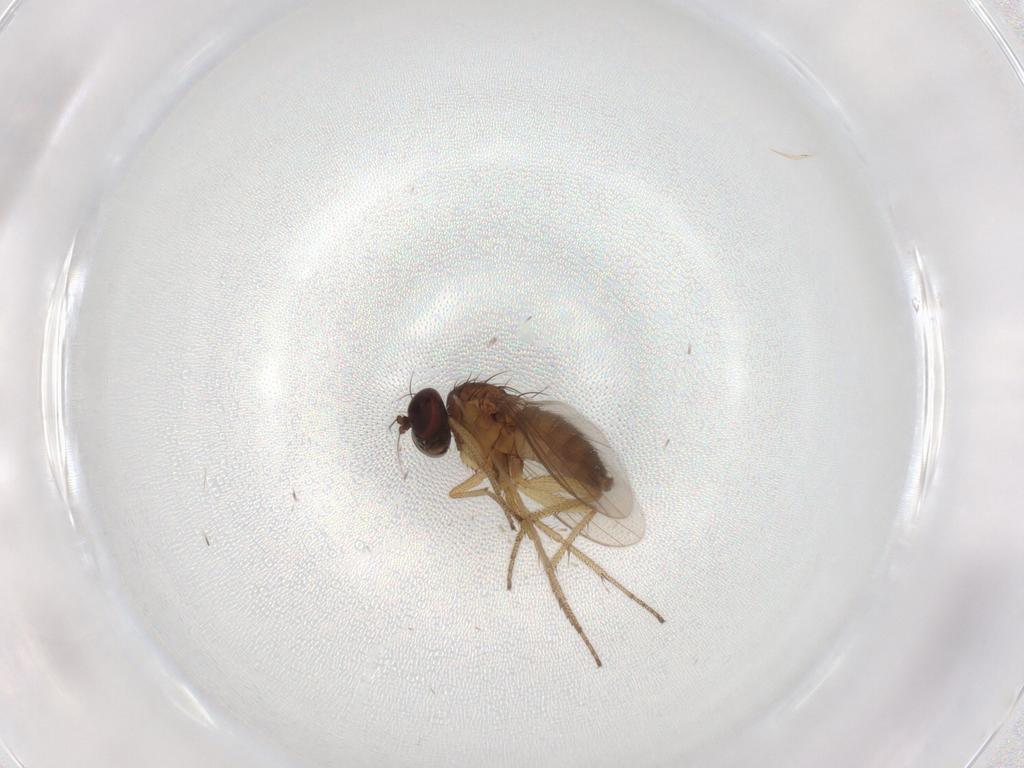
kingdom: Animalia
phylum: Arthropoda
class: Insecta
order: Diptera
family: Dolichopodidae
